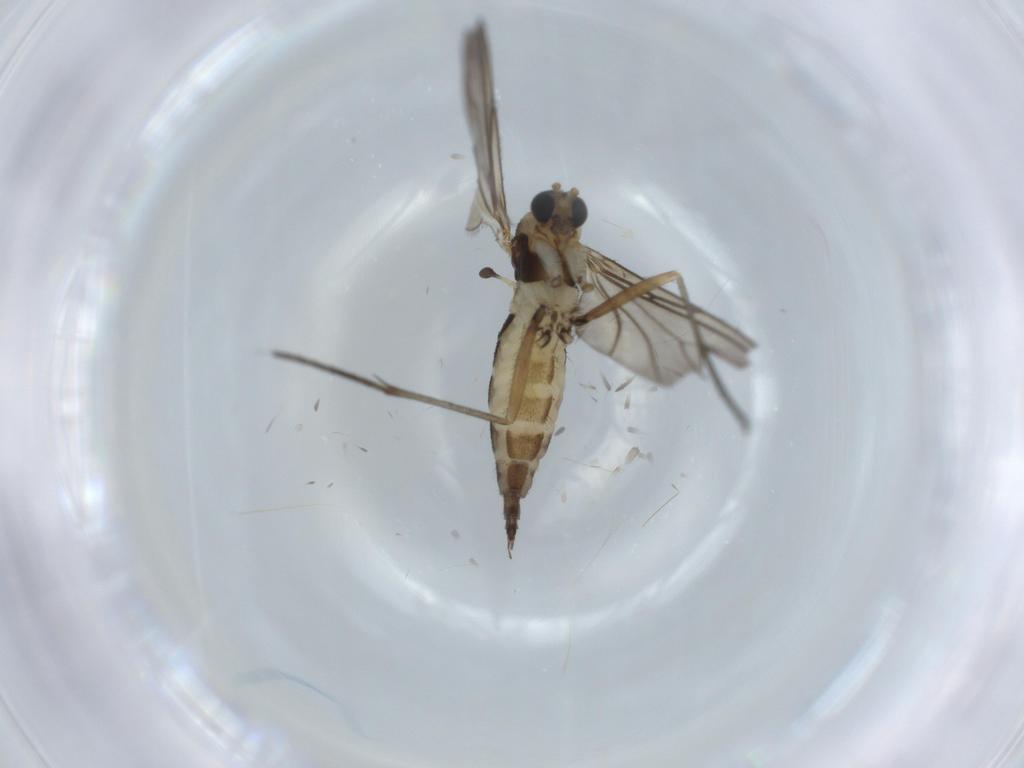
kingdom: Animalia
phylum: Arthropoda
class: Insecta
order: Diptera
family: Sciaridae
